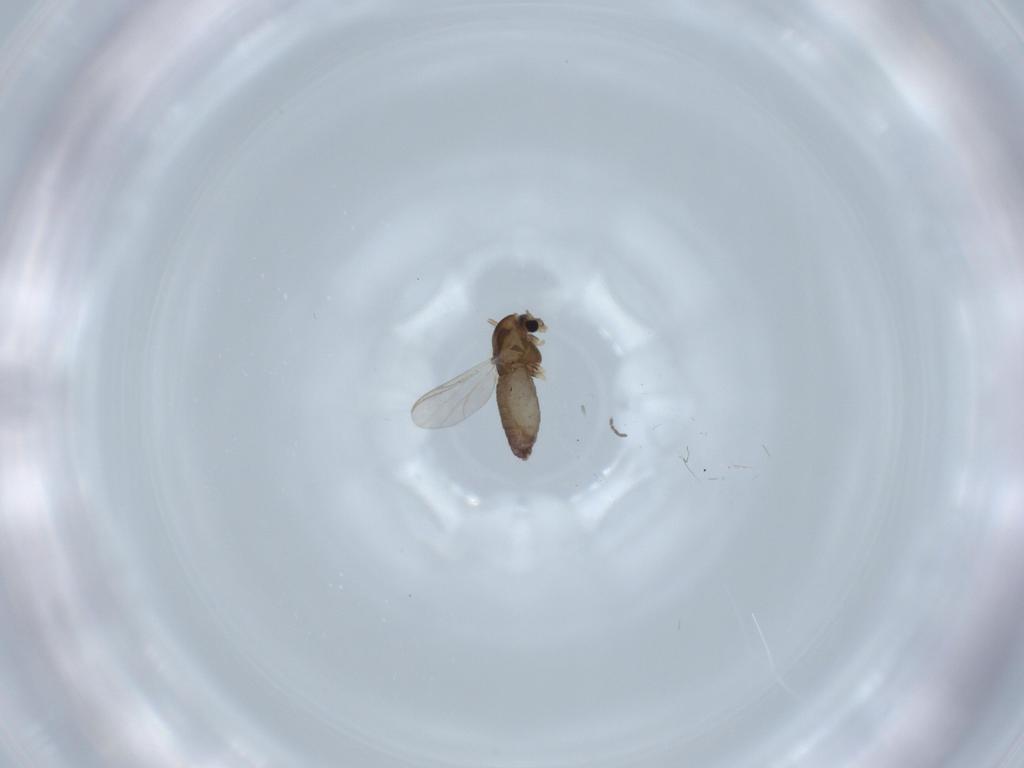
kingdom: Animalia
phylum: Arthropoda
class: Insecta
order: Diptera
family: Chironomidae
